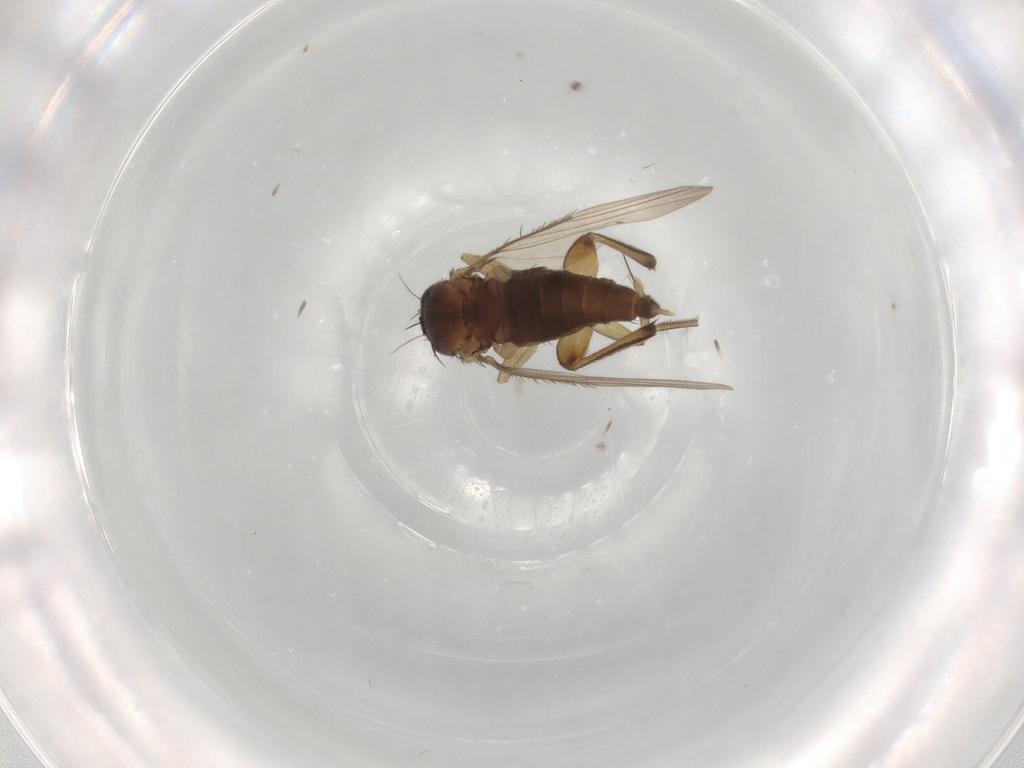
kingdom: Animalia
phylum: Arthropoda
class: Insecta
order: Diptera
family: Phoridae
